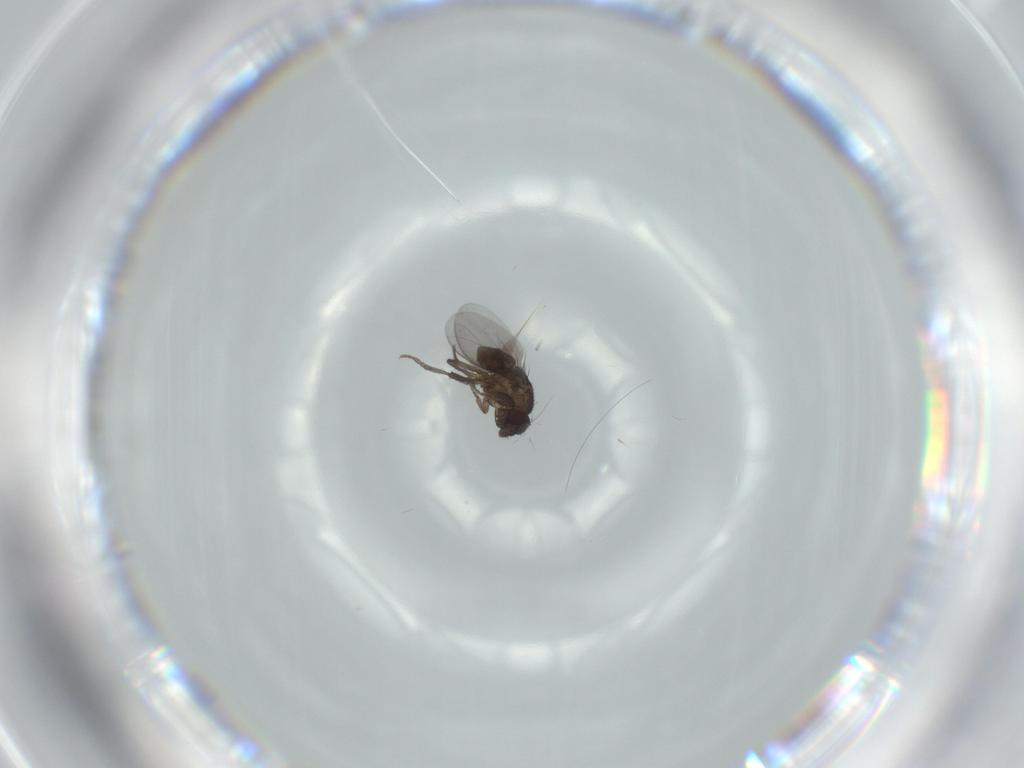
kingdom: Animalia
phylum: Arthropoda
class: Insecta
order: Diptera
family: Sphaeroceridae
